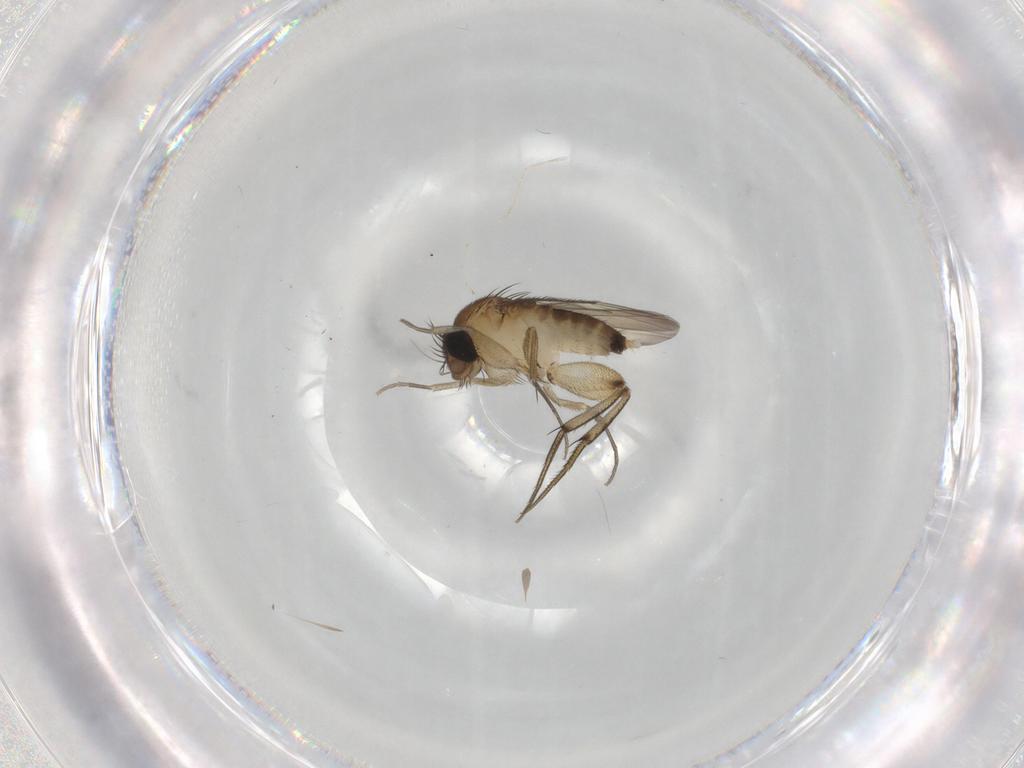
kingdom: Animalia
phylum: Arthropoda
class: Insecta
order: Diptera
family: Phoridae
